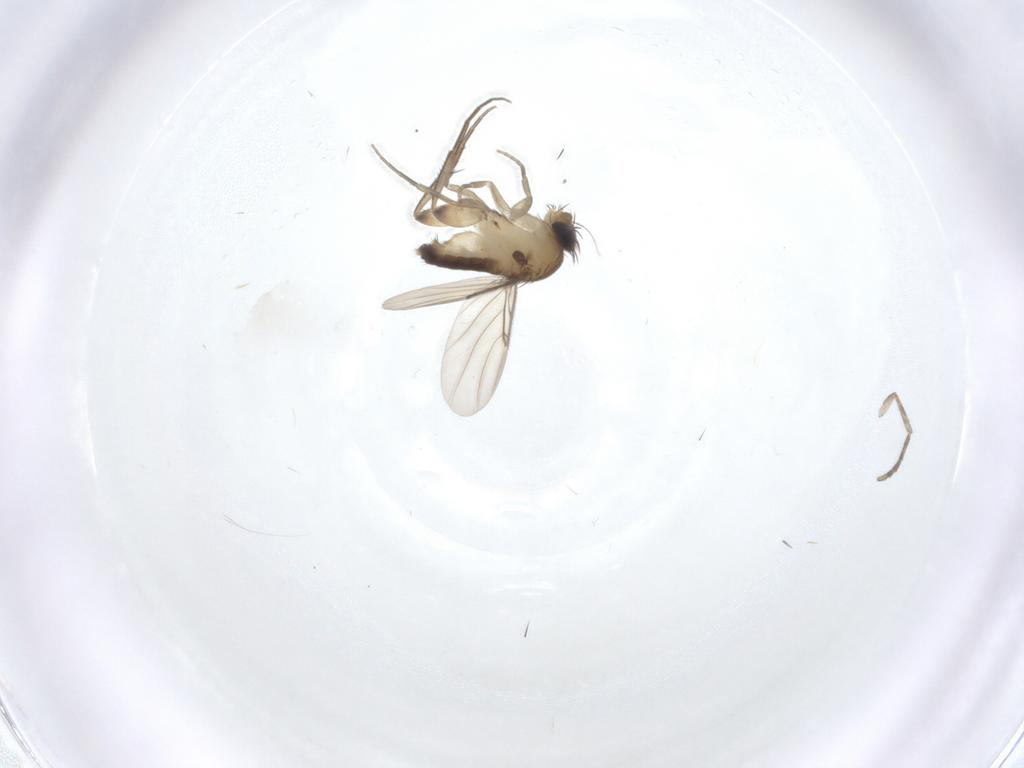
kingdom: Animalia
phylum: Arthropoda
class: Insecta
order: Diptera
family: Phoridae
